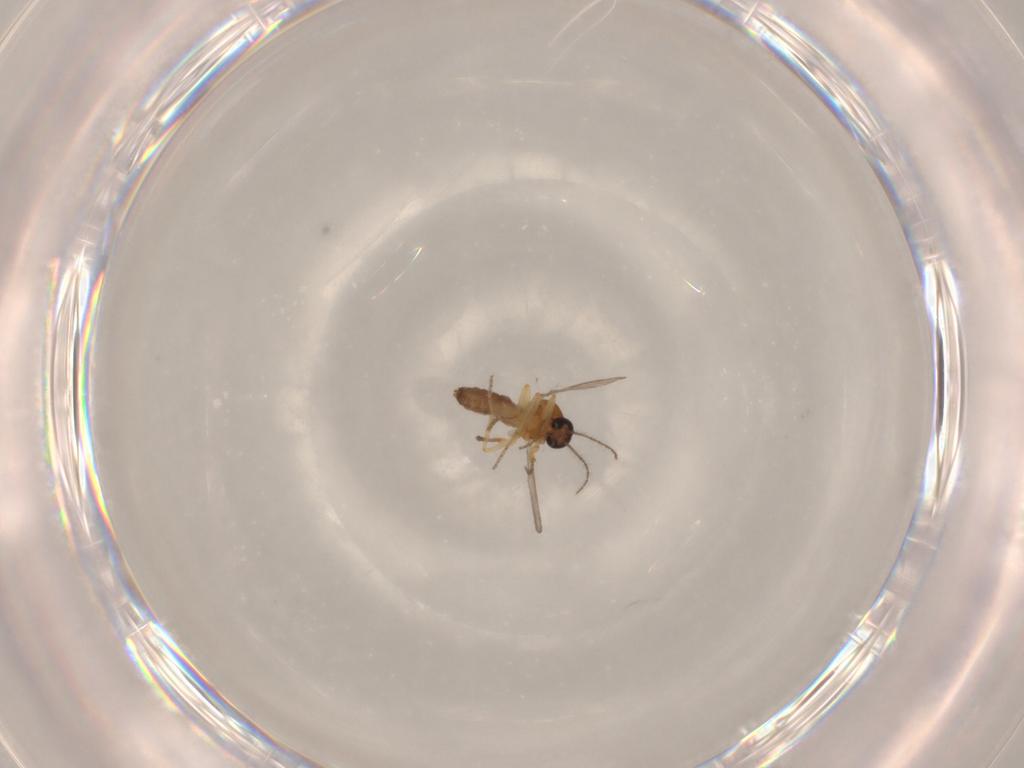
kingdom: Animalia
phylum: Arthropoda
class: Insecta
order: Diptera
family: Ceratopogonidae
